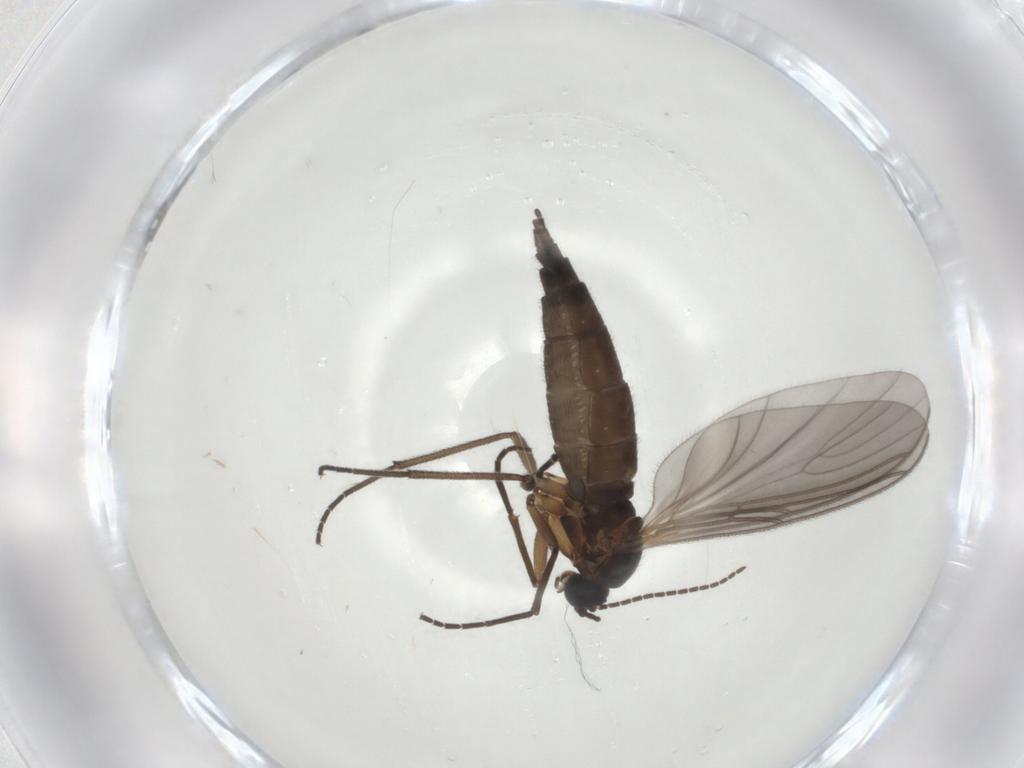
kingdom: Animalia
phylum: Arthropoda
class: Insecta
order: Diptera
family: Sciaridae
